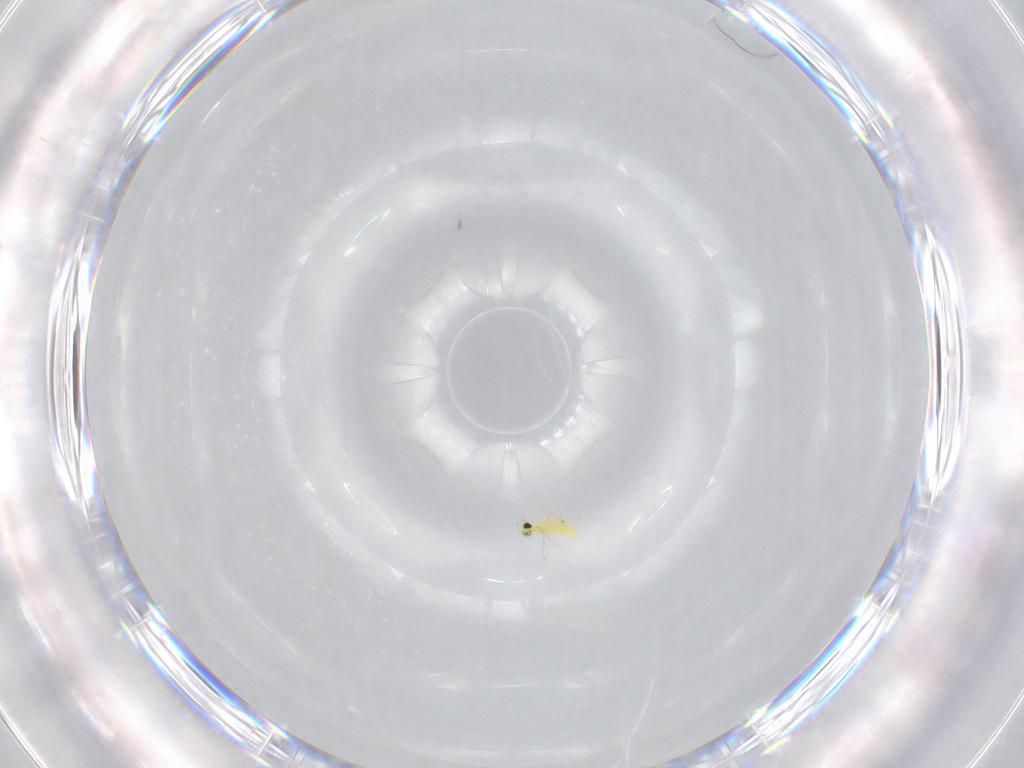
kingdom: Animalia
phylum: Arthropoda
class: Insecta
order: Hymenoptera
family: Trichogrammatidae
